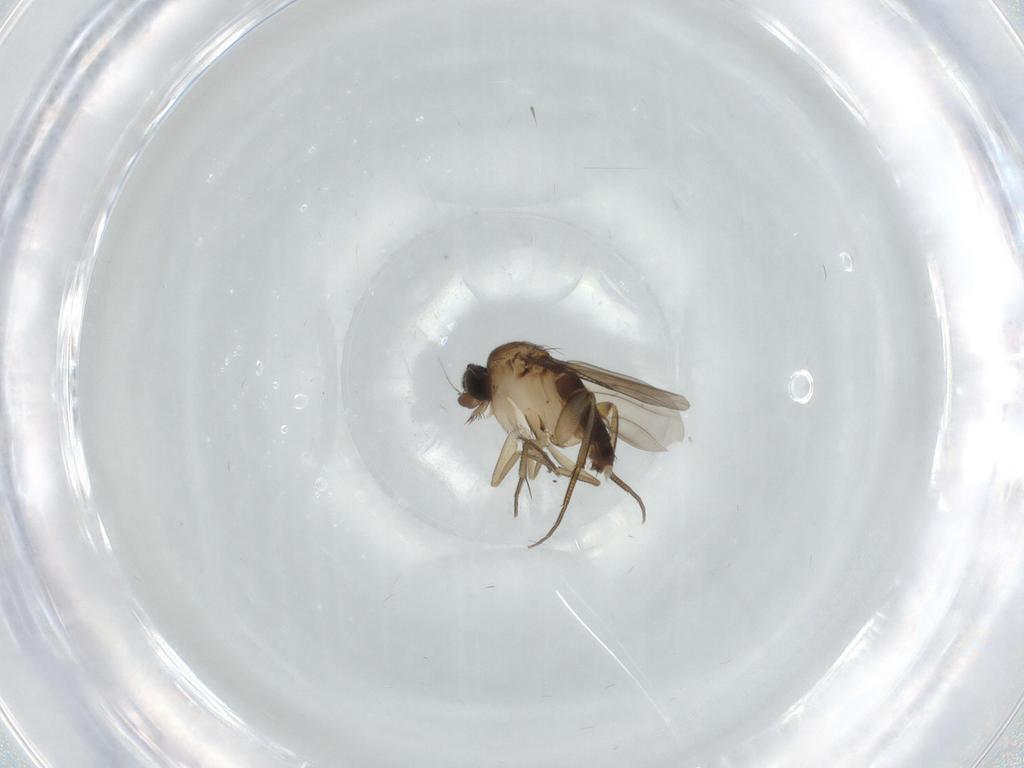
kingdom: Animalia
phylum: Arthropoda
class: Insecta
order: Diptera
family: Phoridae
